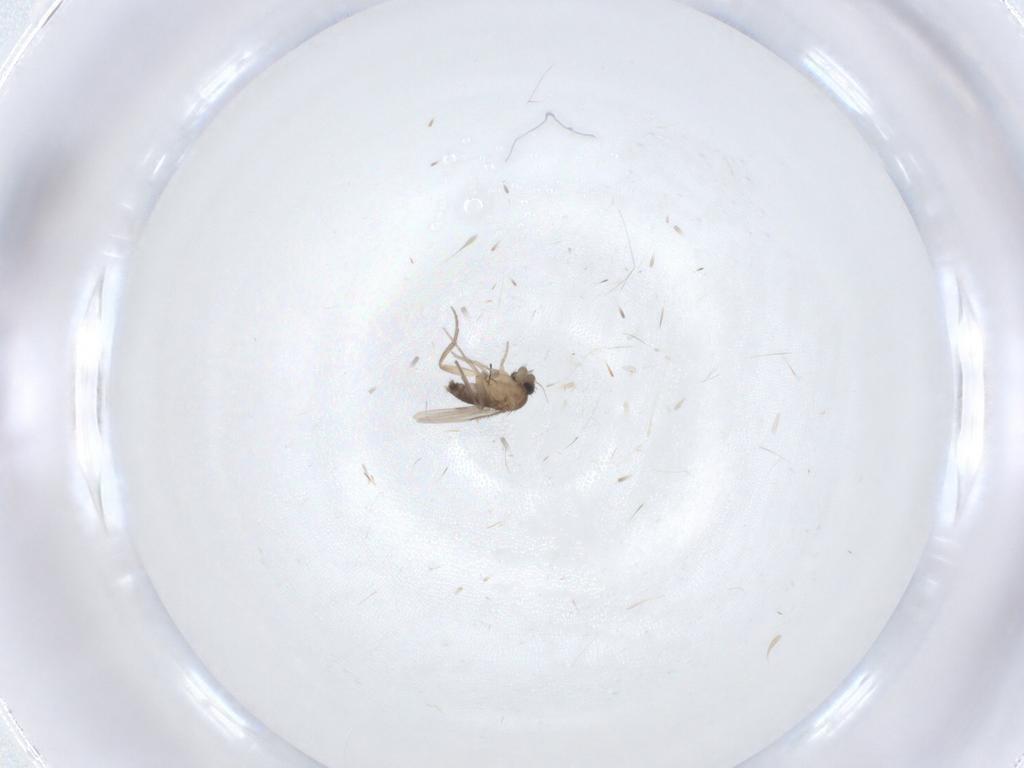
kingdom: Animalia
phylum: Arthropoda
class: Insecta
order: Diptera
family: Phoridae
